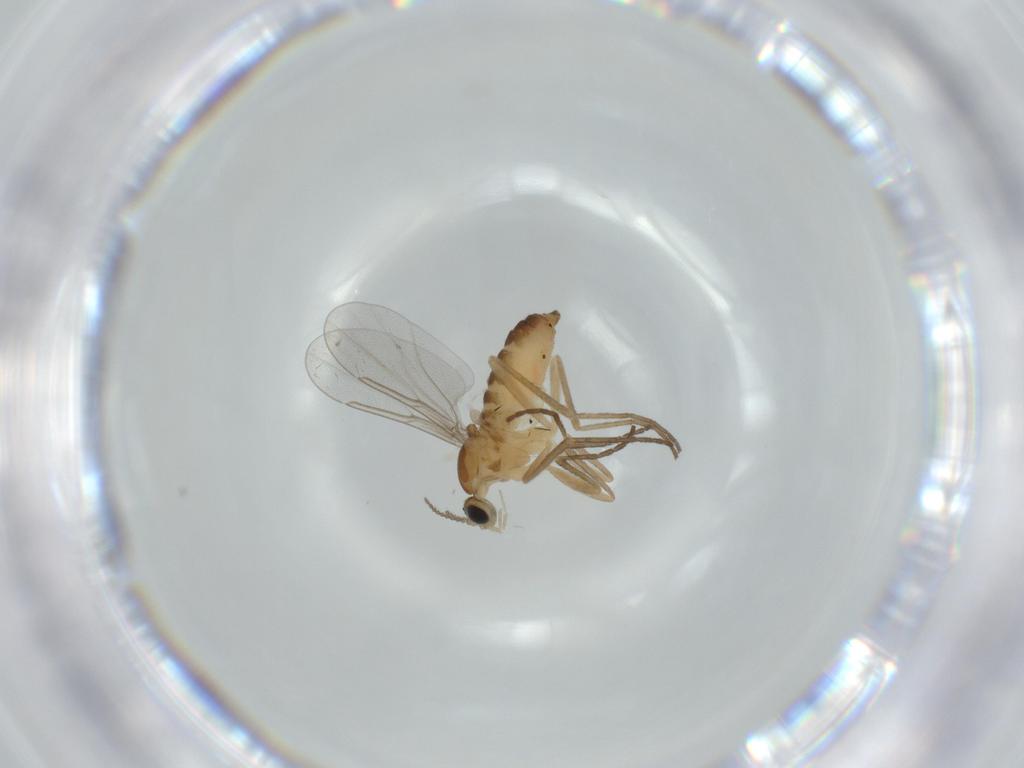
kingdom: Animalia
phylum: Arthropoda
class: Insecta
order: Diptera
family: Cecidomyiidae
